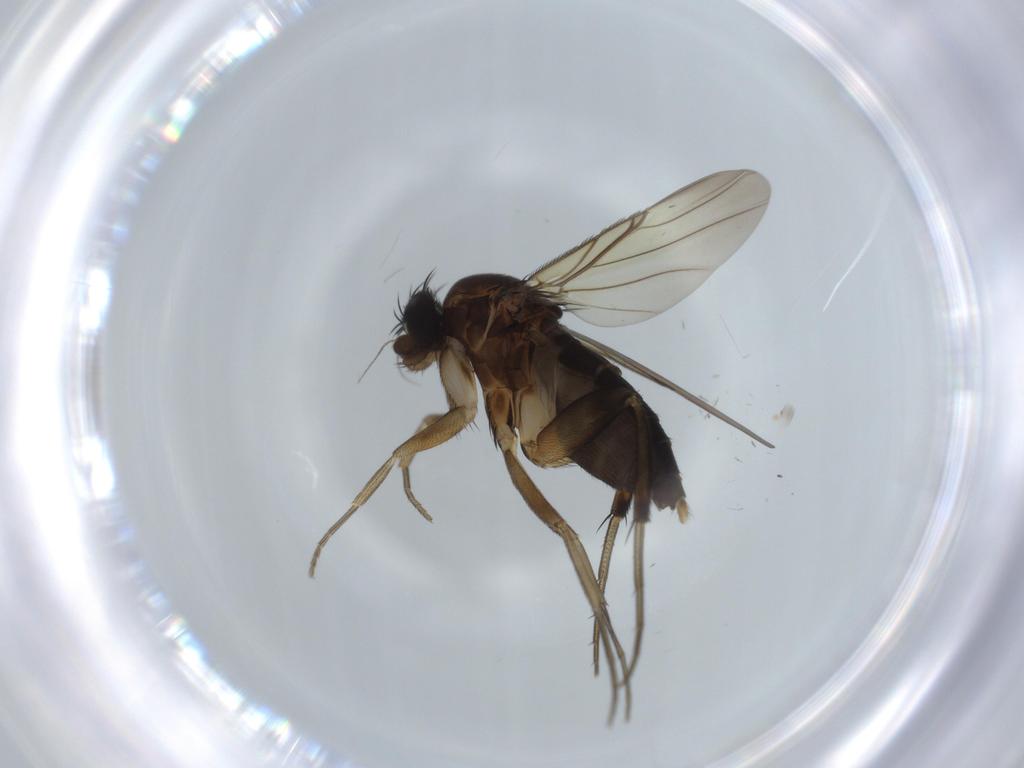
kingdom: Animalia
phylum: Arthropoda
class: Insecta
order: Diptera
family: Phoridae
